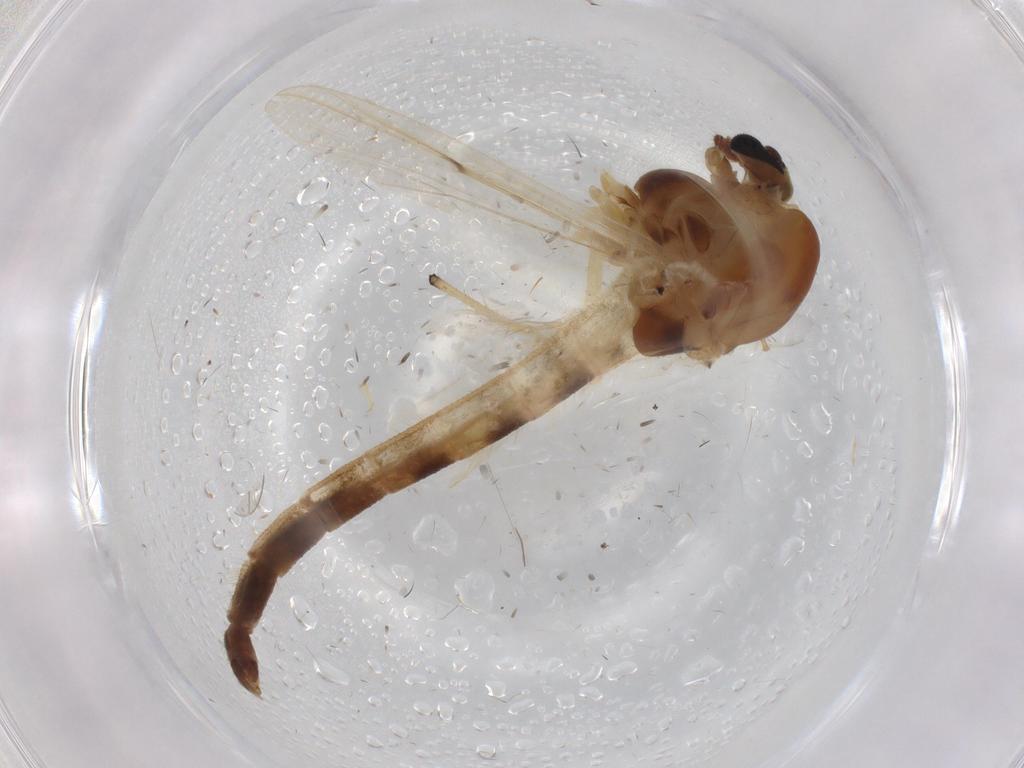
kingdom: Animalia
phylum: Arthropoda
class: Insecta
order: Diptera
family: Chironomidae
